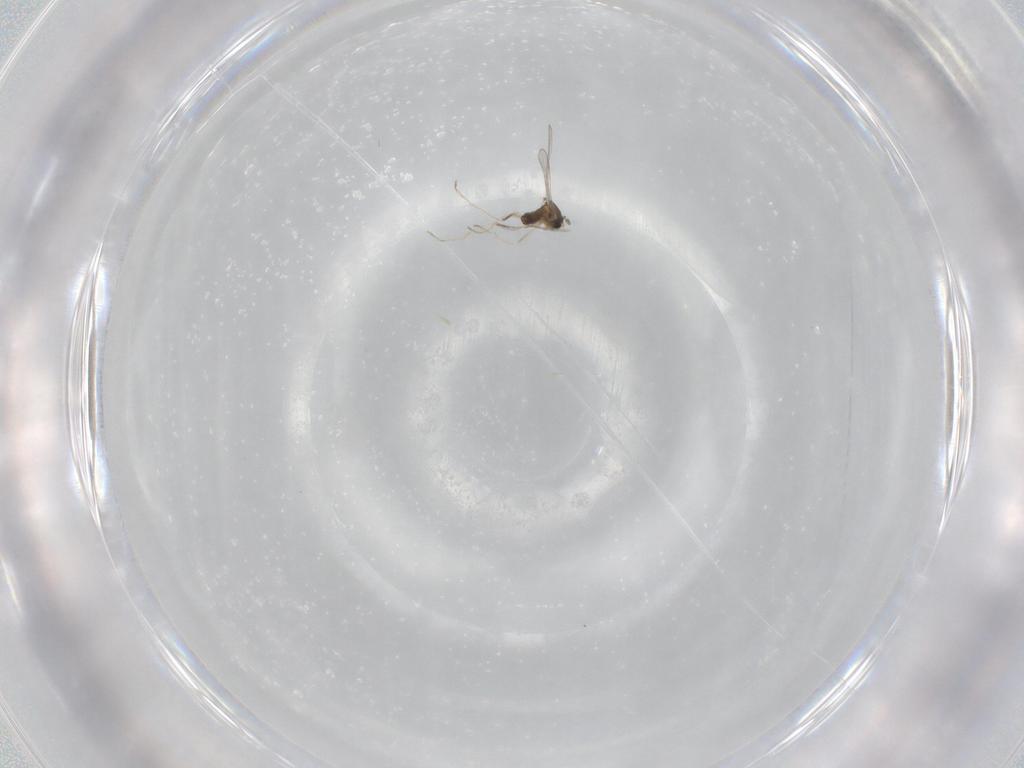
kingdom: Animalia
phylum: Arthropoda
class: Insecta
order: Diptera
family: Cecidomyiidae
